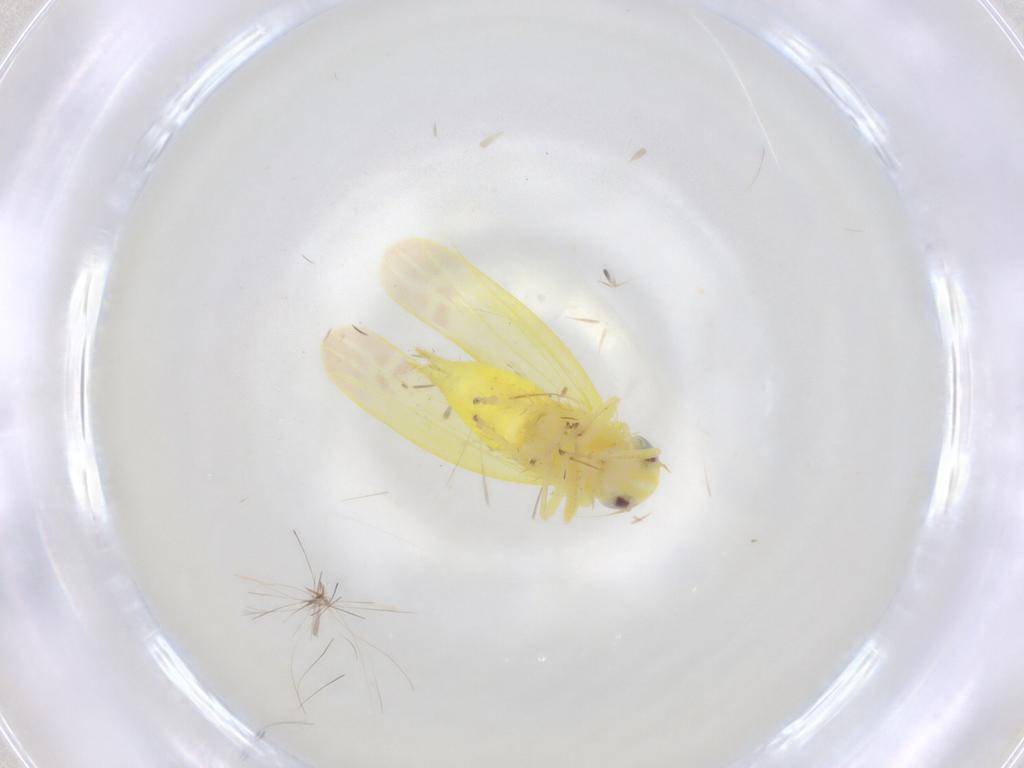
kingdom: Animalia
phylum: Arthropoda
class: Insecta
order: Hemiptera
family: Cicadellidae
